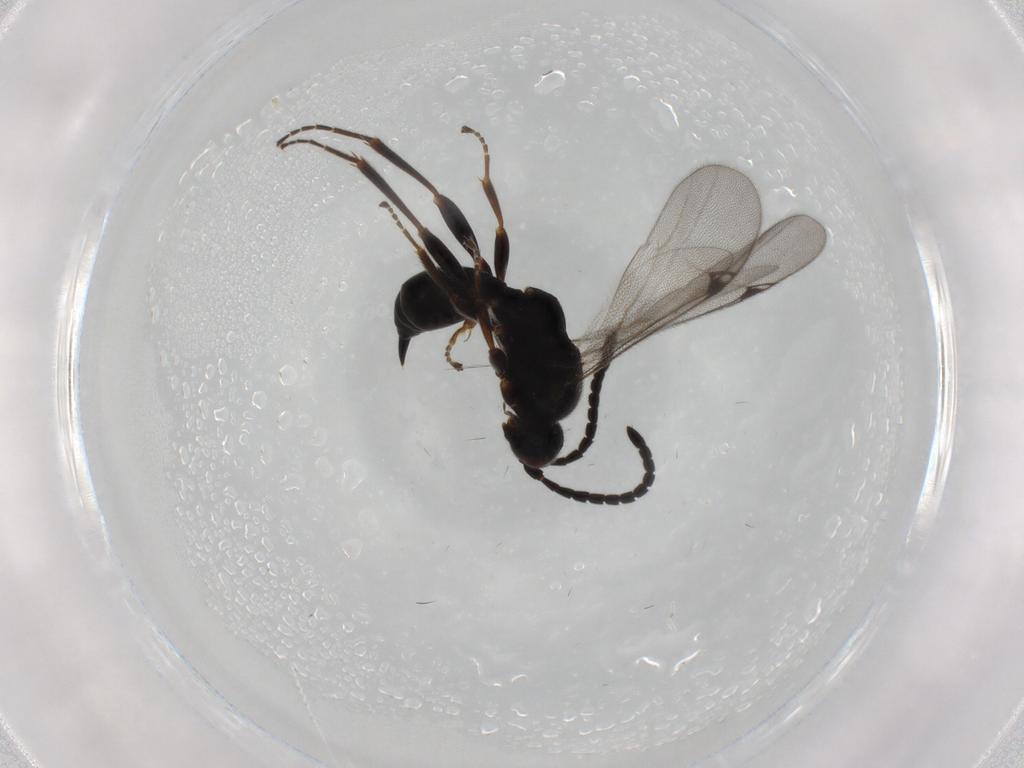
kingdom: Animalia
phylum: Arthropoda
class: Insecta
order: Hymenoptera
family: Proctotrupidae
